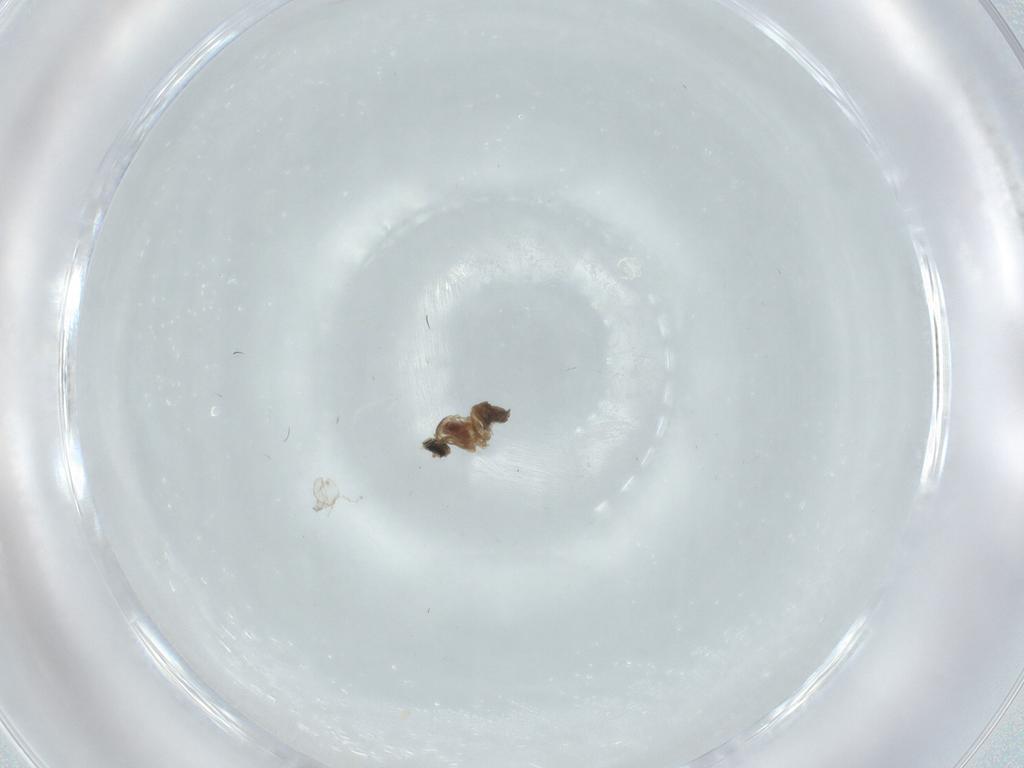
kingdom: Animalia
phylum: Arthropoda
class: Insecta
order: Diptera
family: Cecidomyiidae
